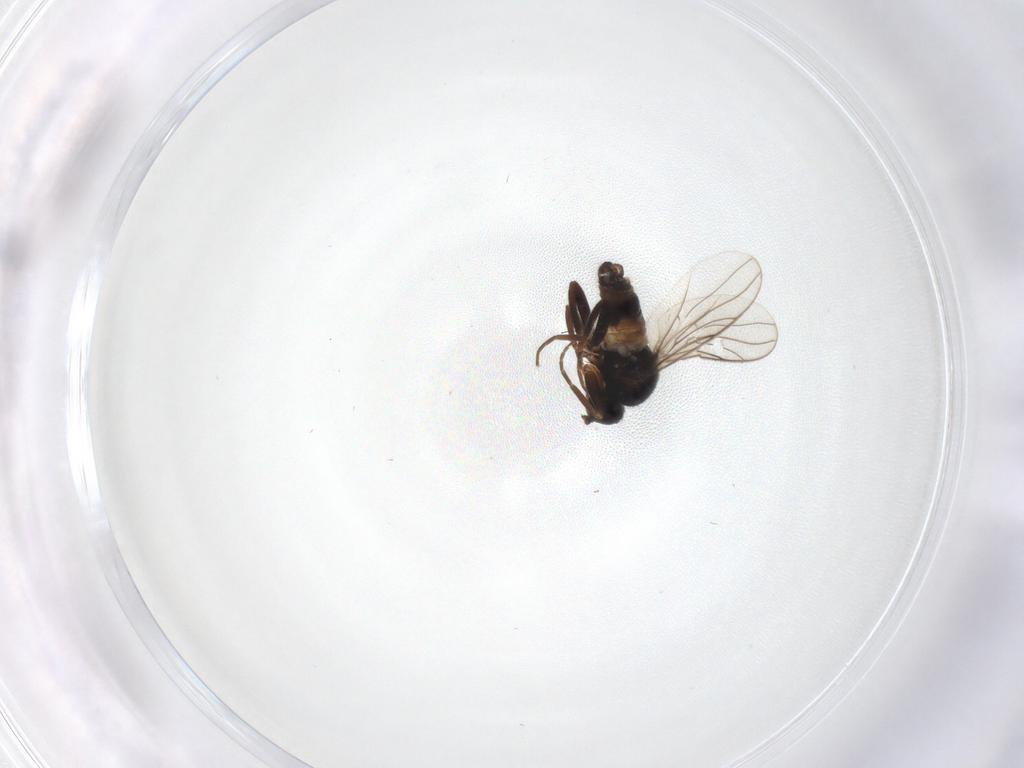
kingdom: Animalia
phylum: Arthropoda
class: Insecta
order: Diptera
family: Hybotidae
